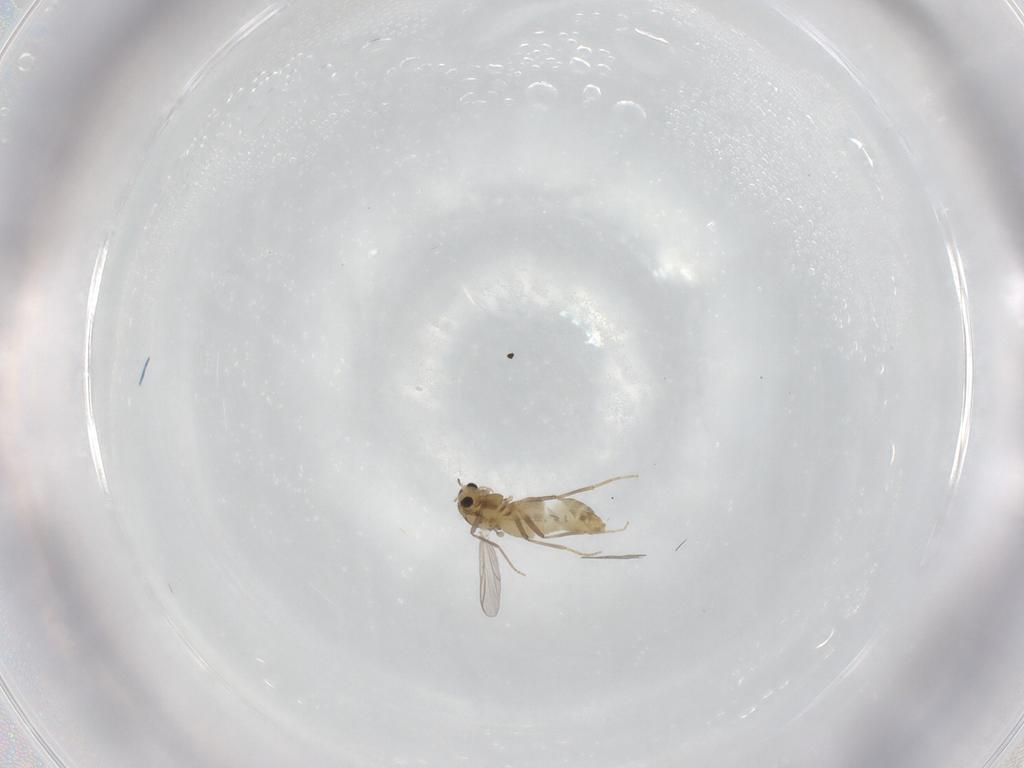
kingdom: Animalia
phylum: Arthropoda
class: Insecta
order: Diptera
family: Chironomidae
